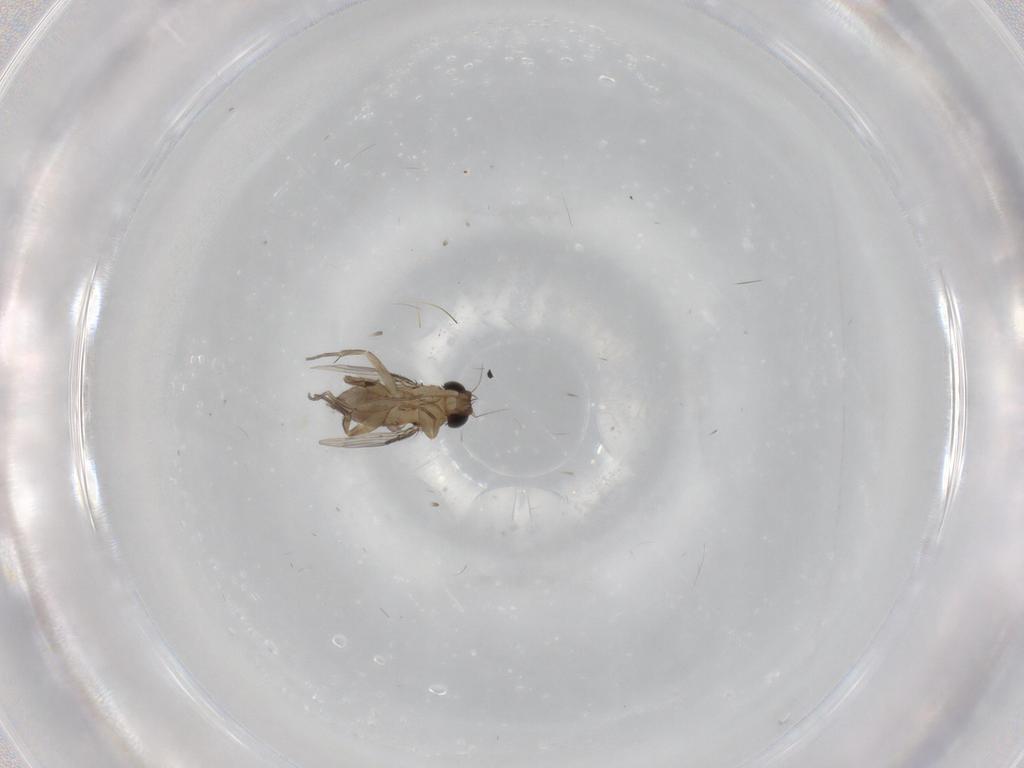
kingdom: Animalia
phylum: Arthropoda
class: Insecta
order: Diptera
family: Phoridae
